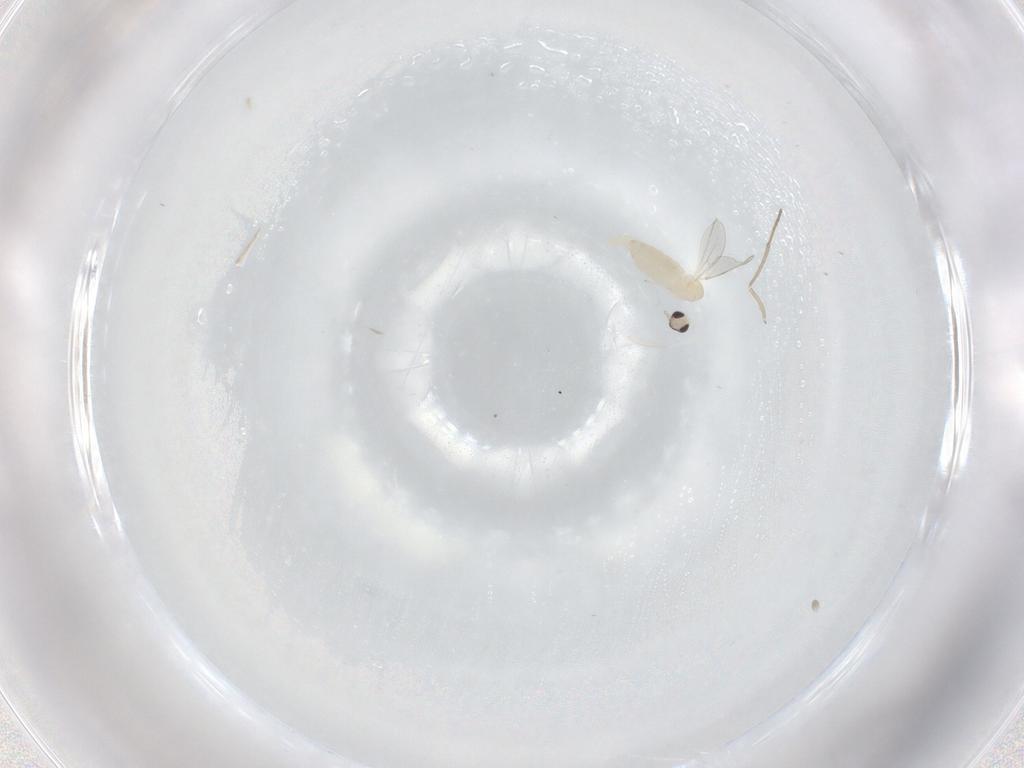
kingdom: Animalia
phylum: Arthropoda
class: Insecta
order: Diptera
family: Cecidomyiidae
